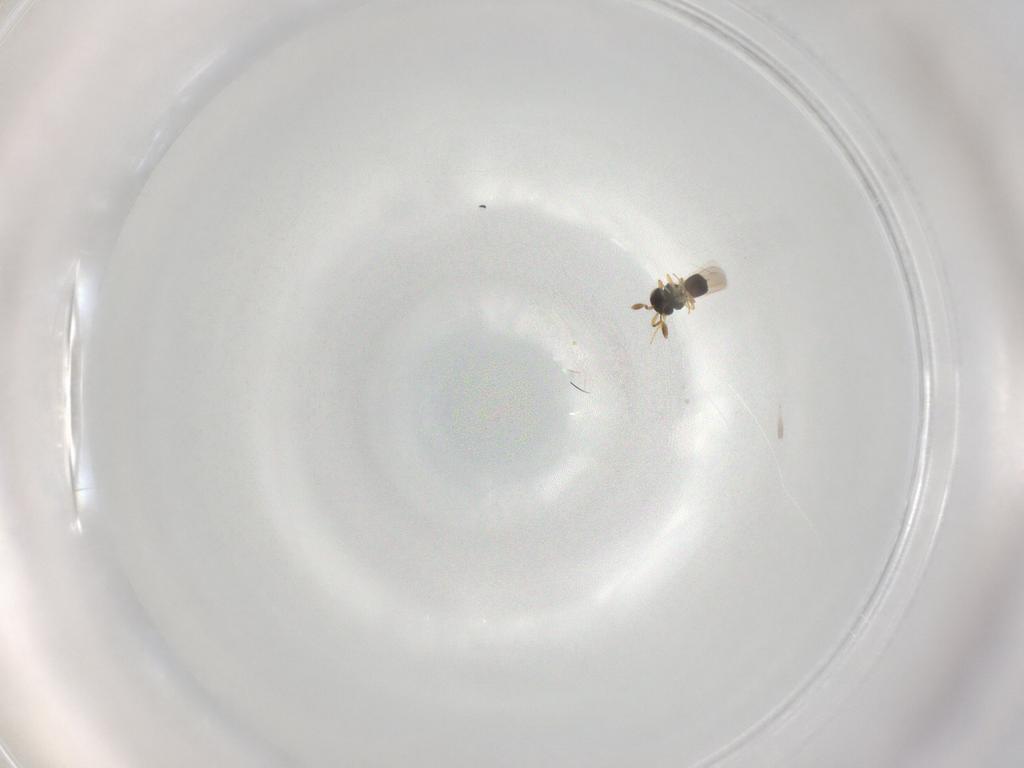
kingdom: Animalia
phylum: Arthropoda
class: Insecta
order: Hymenoptera
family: Scelionidae
